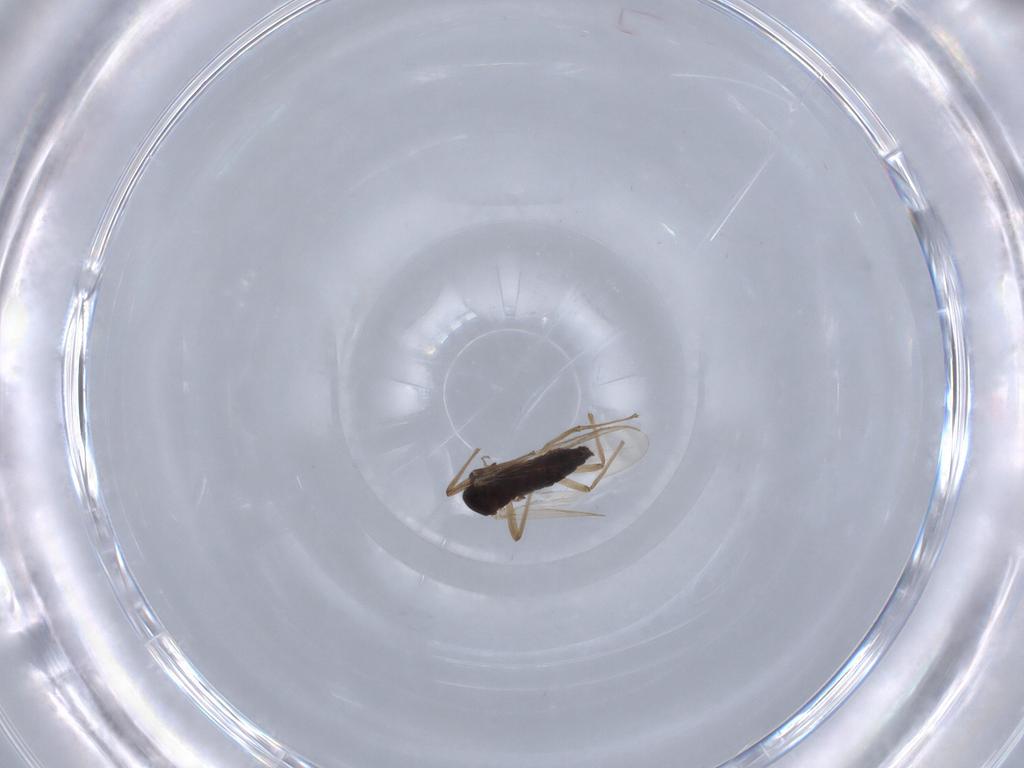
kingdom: Animalia
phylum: Arthropoda
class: Insecta
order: Diptera
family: Chironomidae
